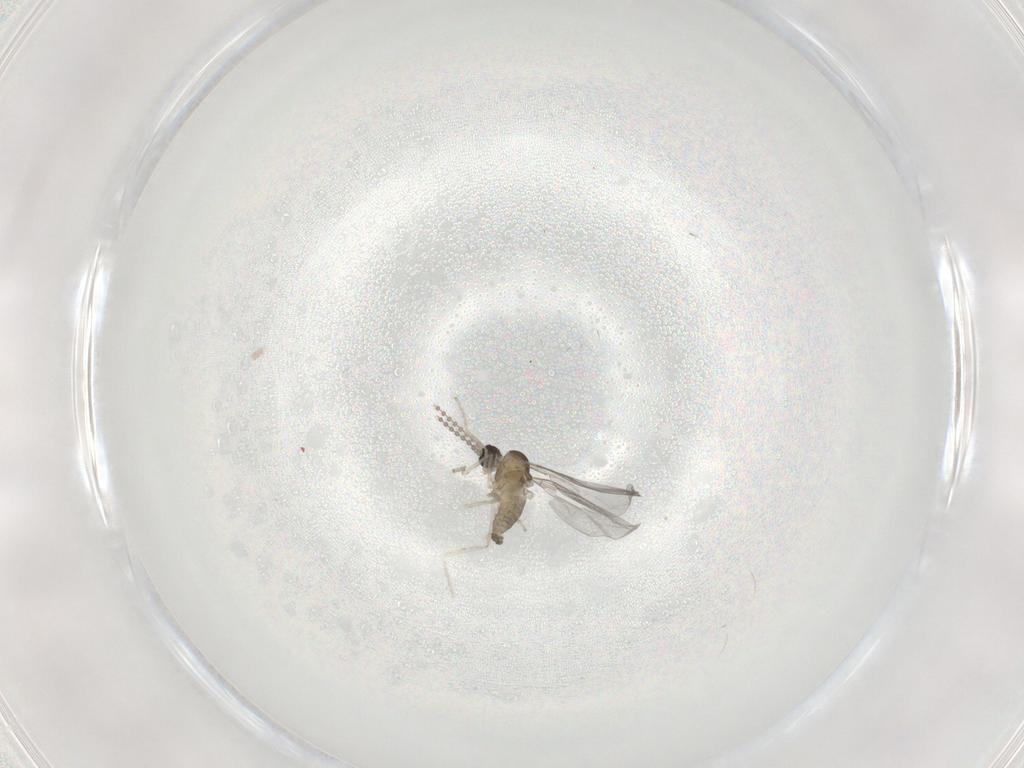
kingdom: Animalia
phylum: Arthropoda
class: Insecta
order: Diptera
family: Cecidomyiidae
